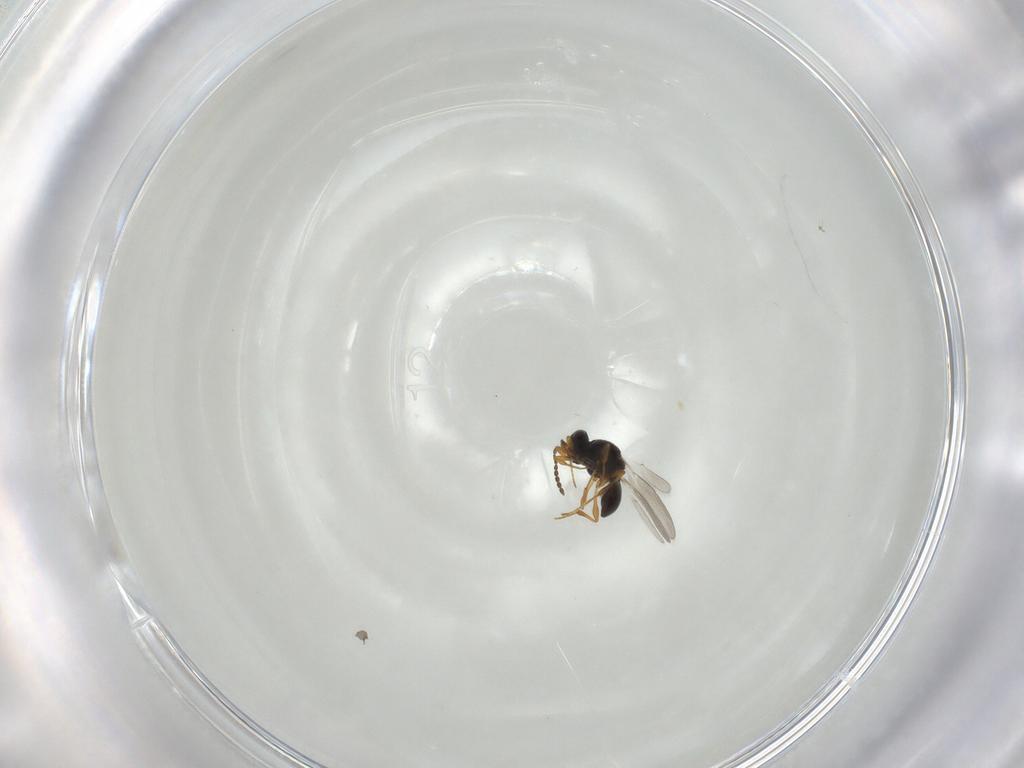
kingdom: Animalia
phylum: Arthropoda
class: Insecta
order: Hymenoptera
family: Platygastridae
